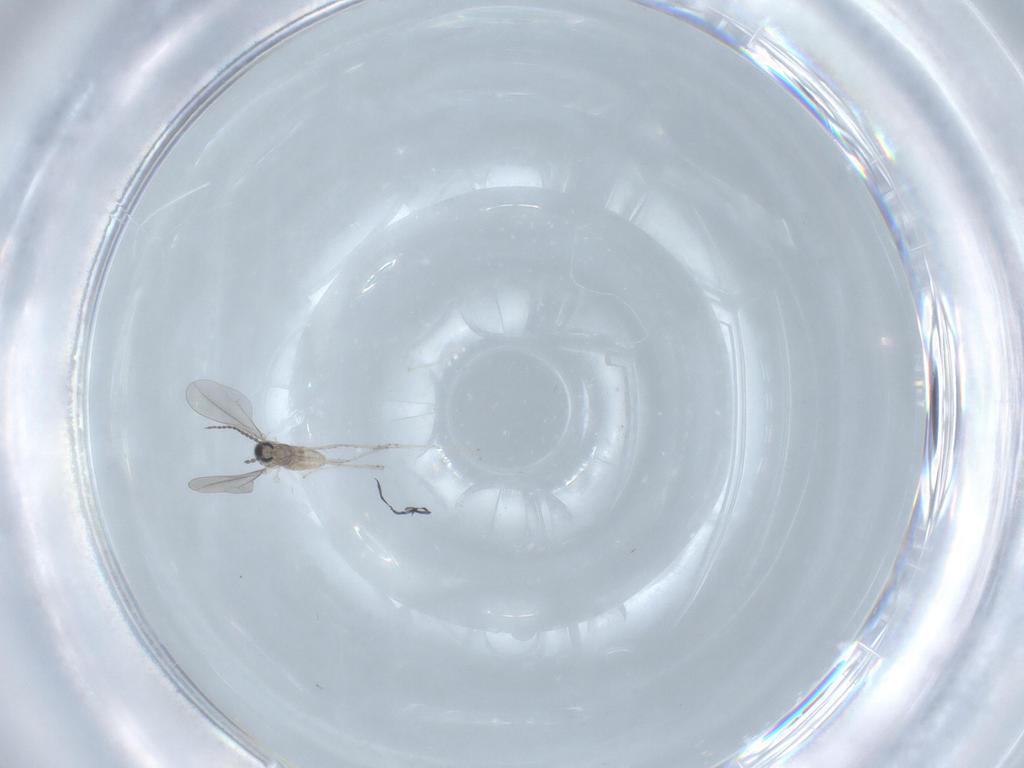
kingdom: Animalia
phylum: Arthropoda
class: Insecta
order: Diptera
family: Cecidomyiidae
